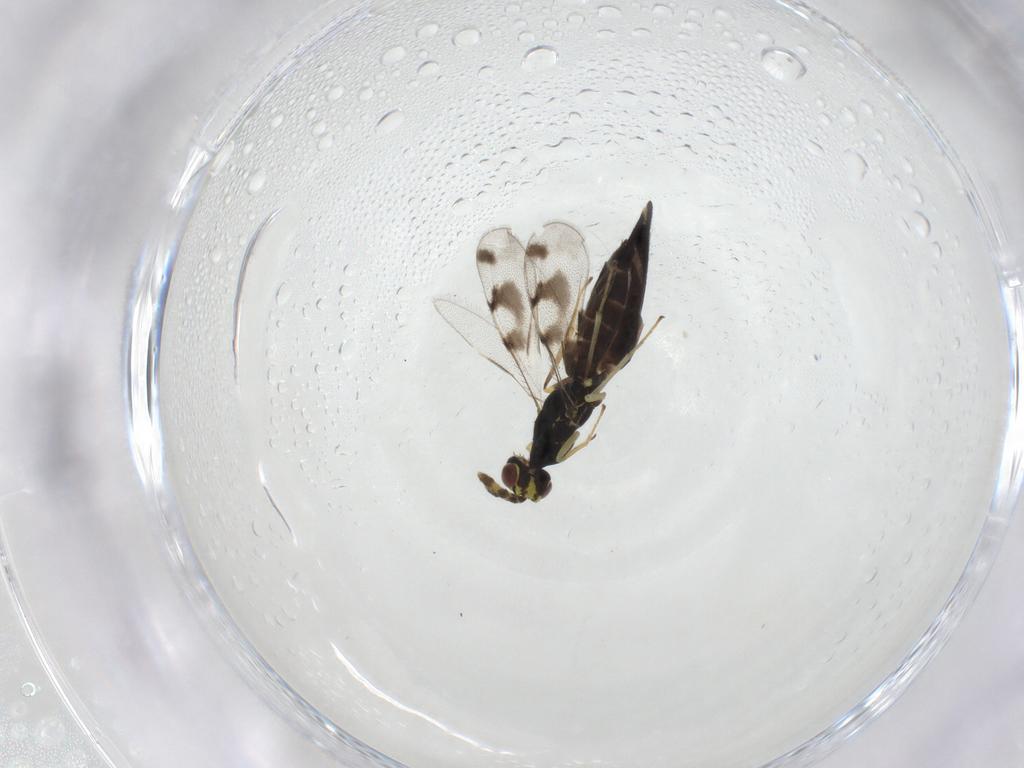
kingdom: Animalia
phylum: Arthropoda
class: Insecta
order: Hymenoptera
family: Eulophidae
